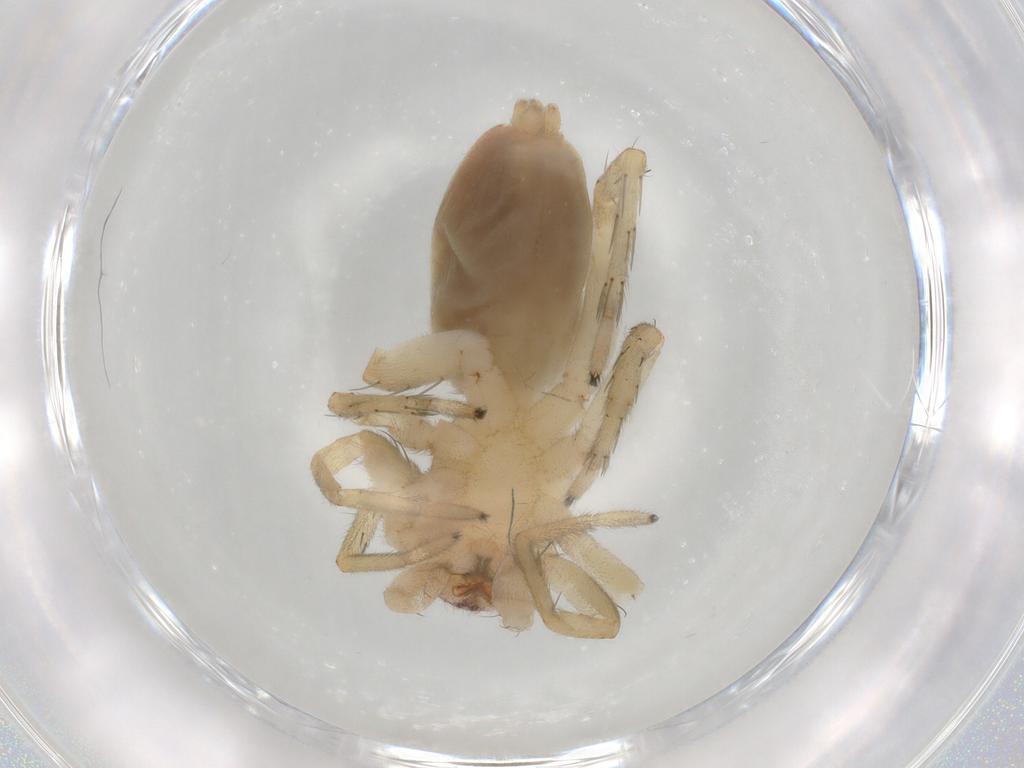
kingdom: Animalia
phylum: Arthropoda
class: Arachnida
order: Araneae
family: Clubionidae
